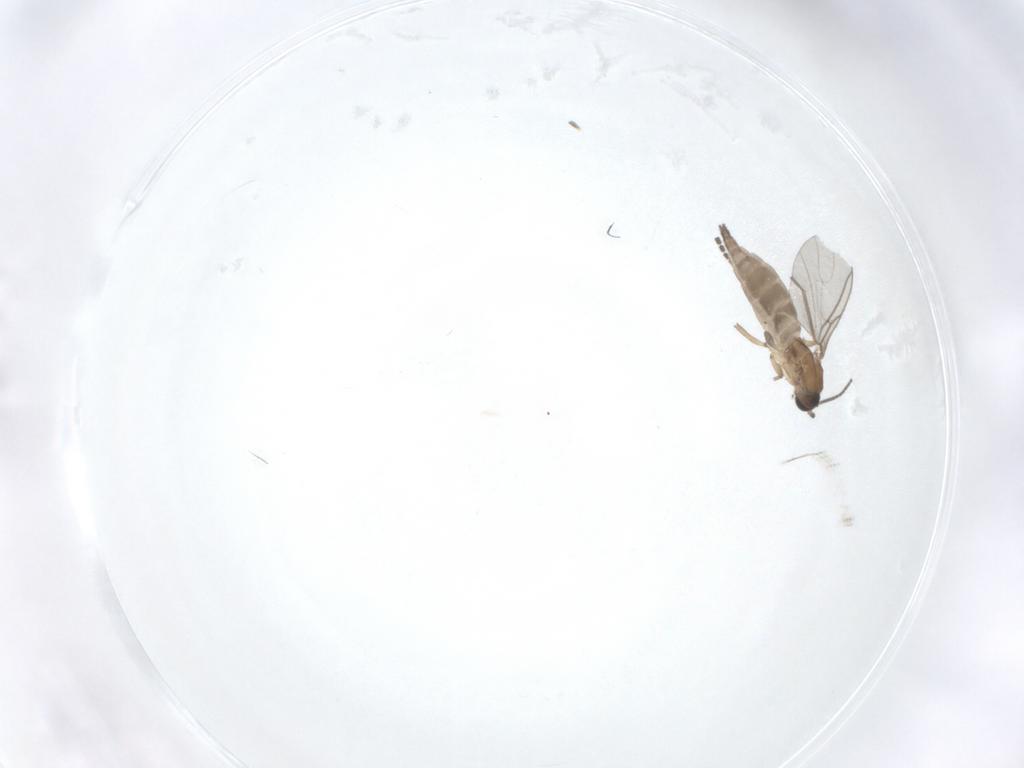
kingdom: Animalia
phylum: Arthropoda
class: Insecta
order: Diptera
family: Sciaridae
